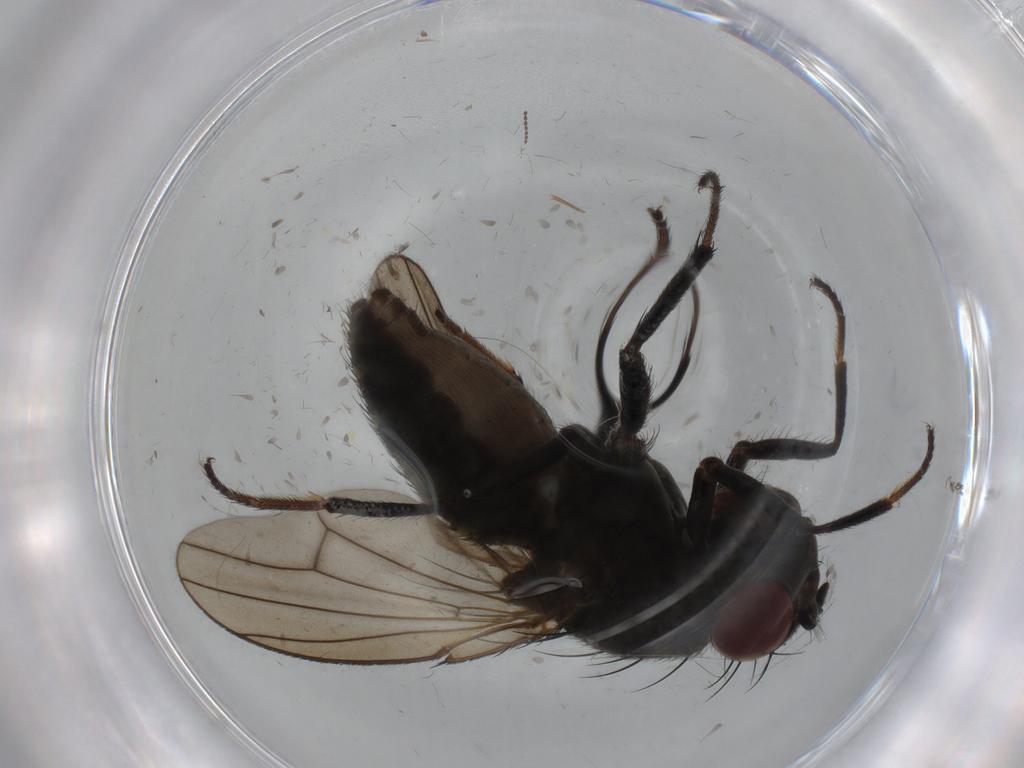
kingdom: Animalia
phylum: Arthropoda
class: Insecta
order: Diptera
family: Ephydridae
